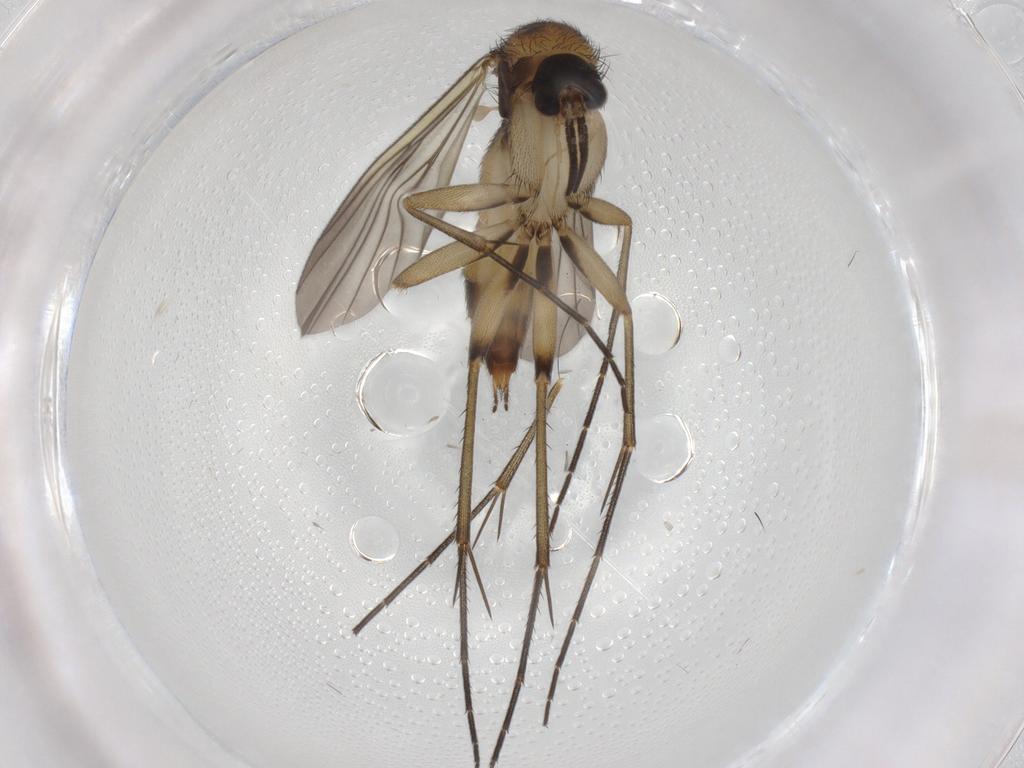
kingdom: Animalia
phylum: Arthropoda
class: Insecta
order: Diptera
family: Mycetophilidae
